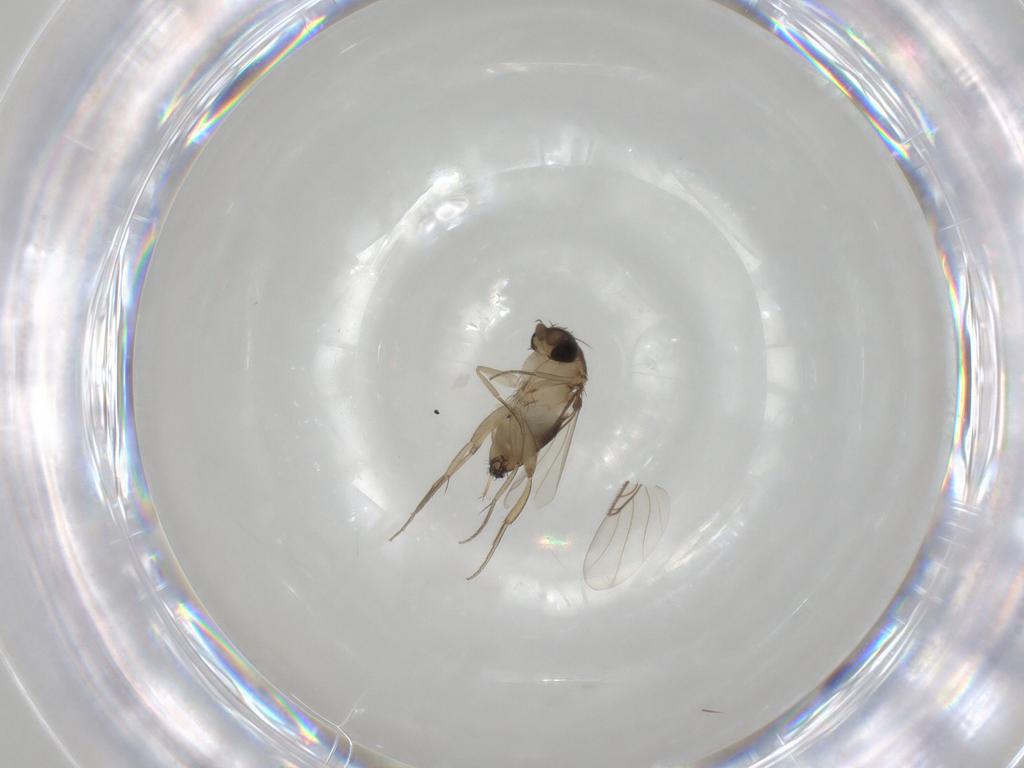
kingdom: Animalia
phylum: Arthropoda
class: Insecta
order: Diptera
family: Phoridae
